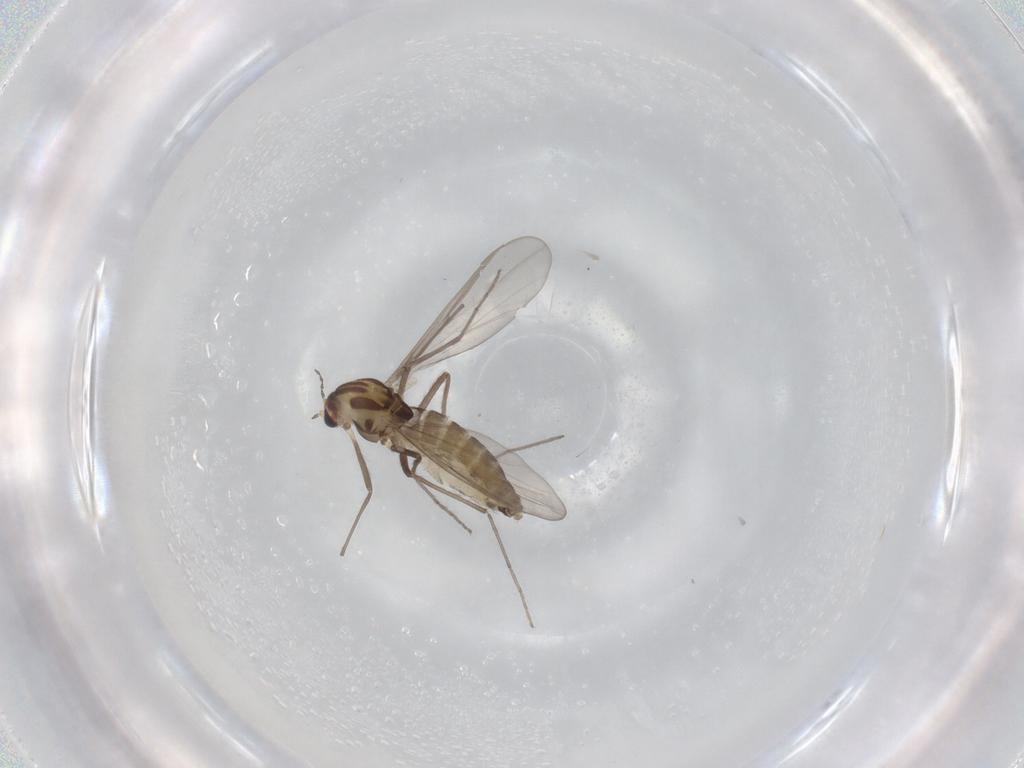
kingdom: Animalia
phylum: Arthropoda
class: Insecta
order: Diptera
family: Chironomidae
